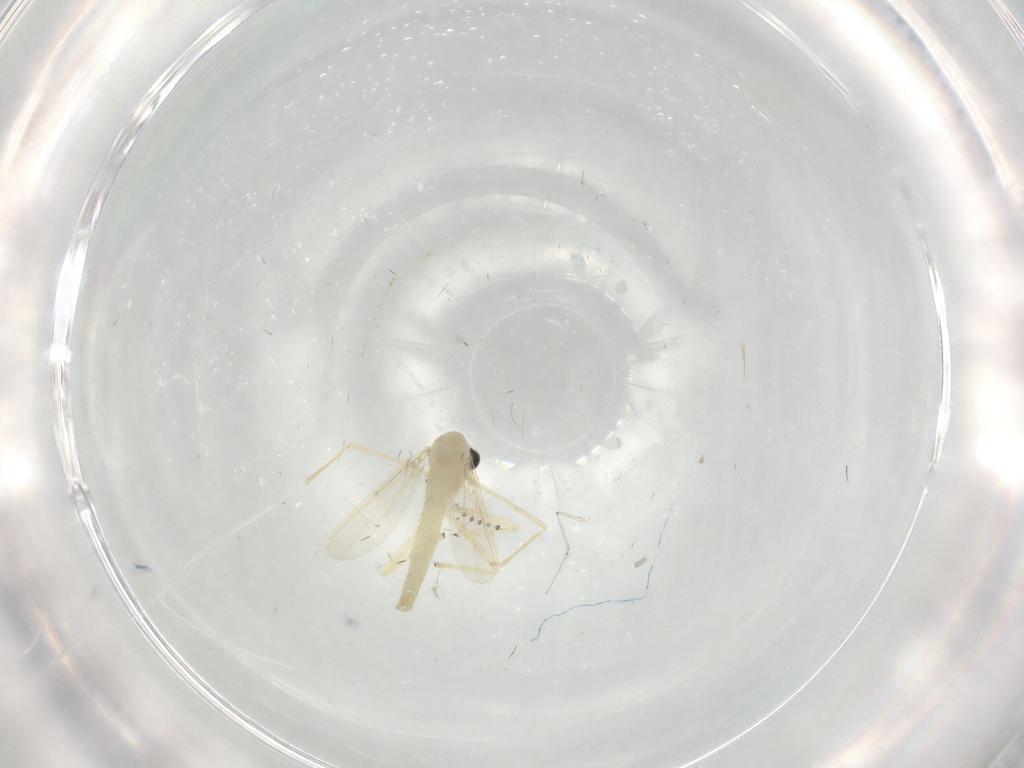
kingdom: Animalia
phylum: Arthropoda
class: Insecta
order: Diptera
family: Chironomidae
